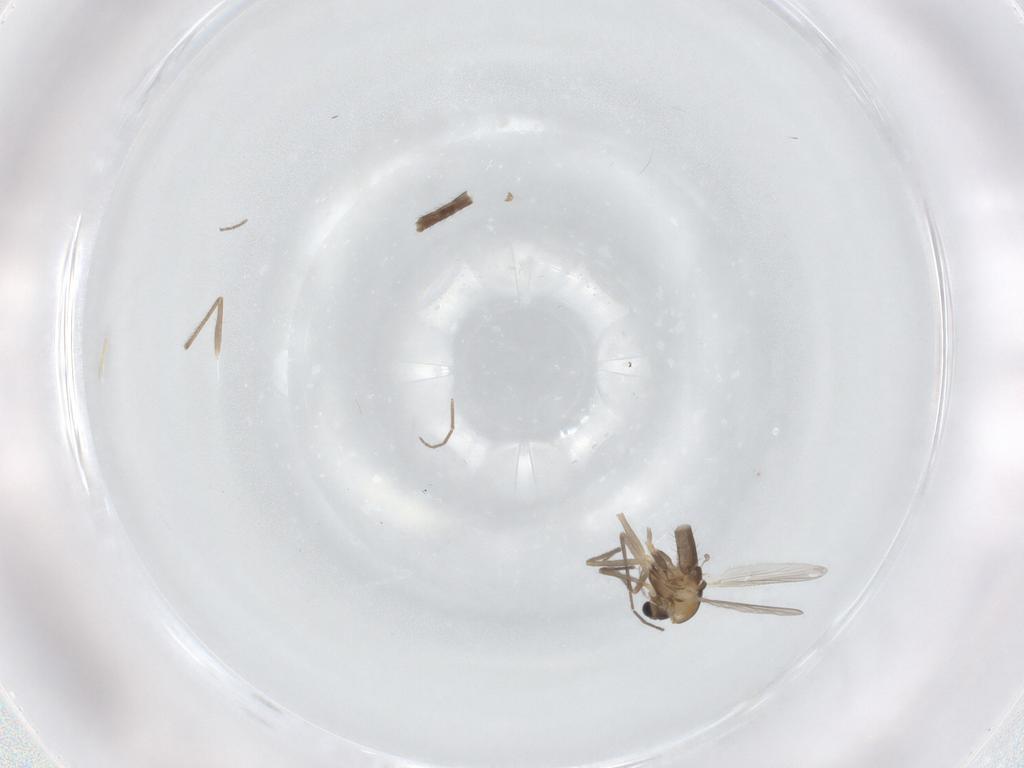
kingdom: Animalia
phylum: Arthropoda
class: Insecta
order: Diptera
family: Chironomidae
